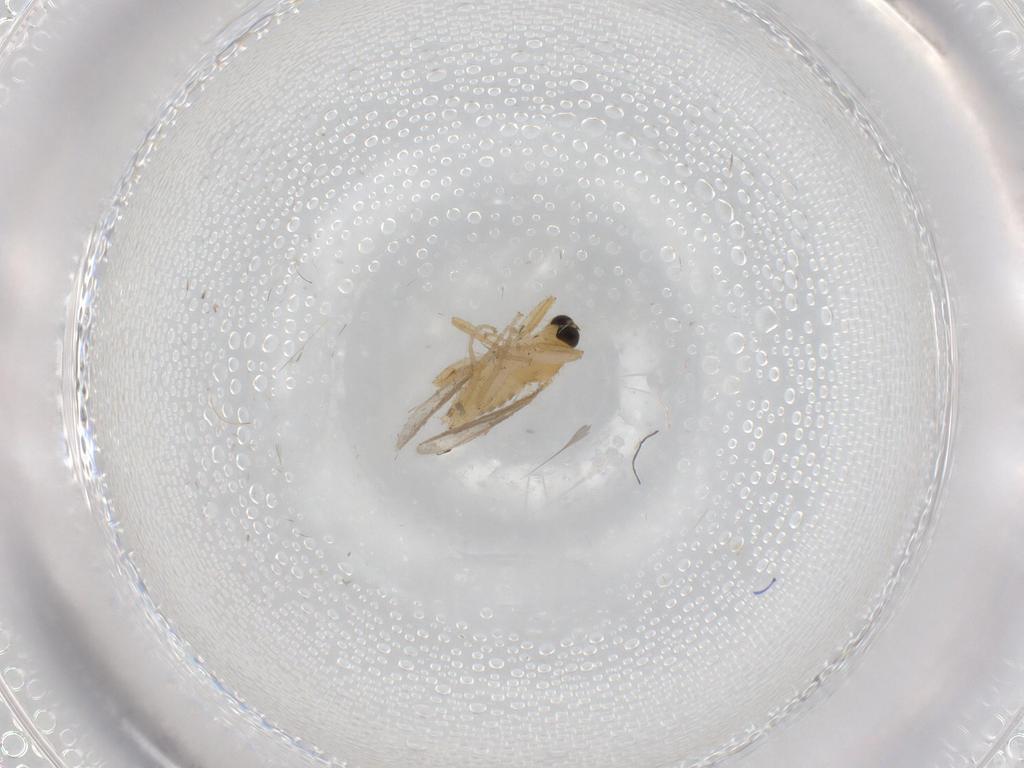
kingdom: Animalia
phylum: Arthropoda
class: Insecta
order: Diptera
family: Hybotidae
